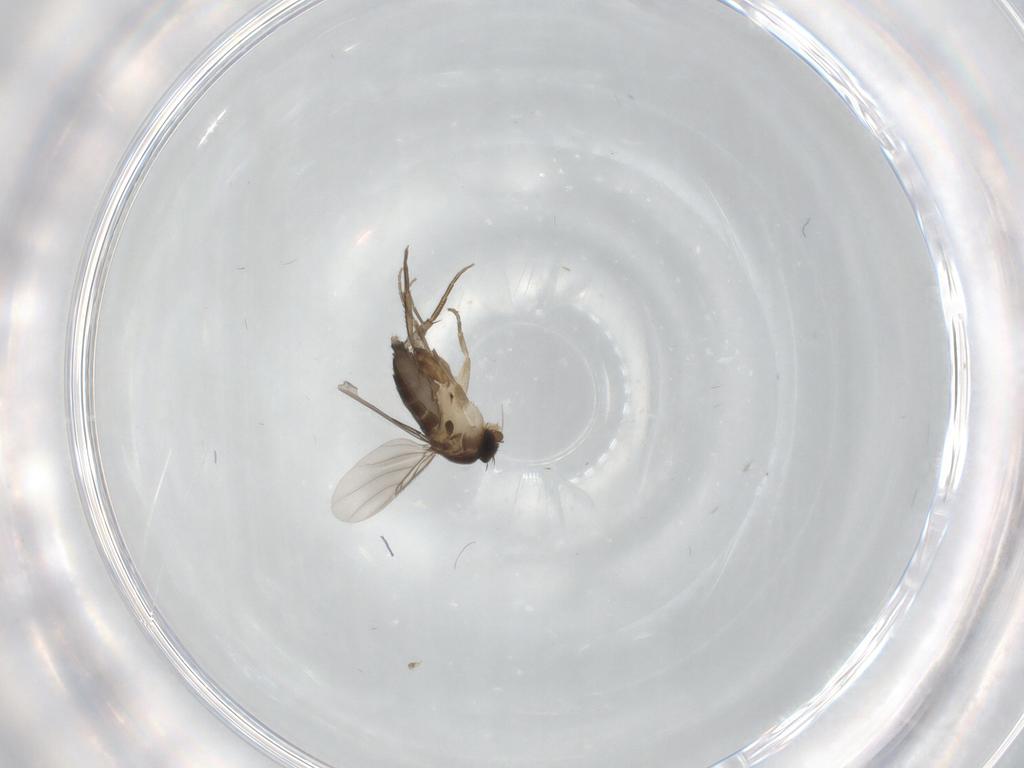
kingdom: Animalia
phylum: Arthropoda
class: Insecta
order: Diptera
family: Phoridae
